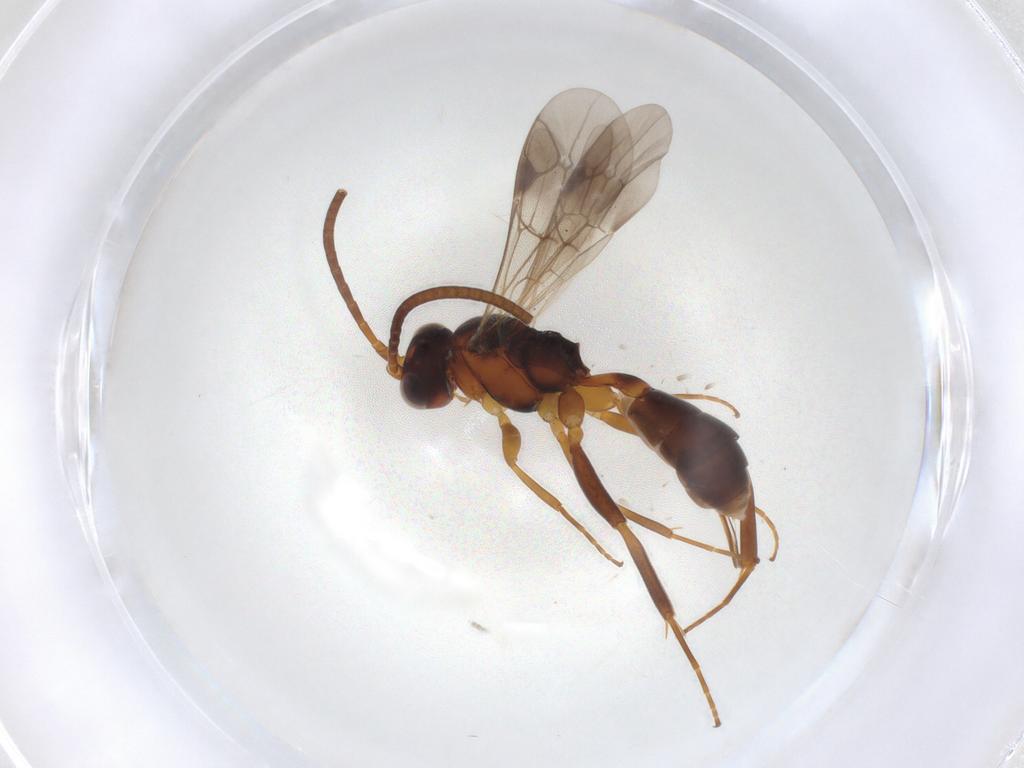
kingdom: Animalia
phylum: Arthropoda
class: Insecta
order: Hymenoptera
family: Ichneumonidae
